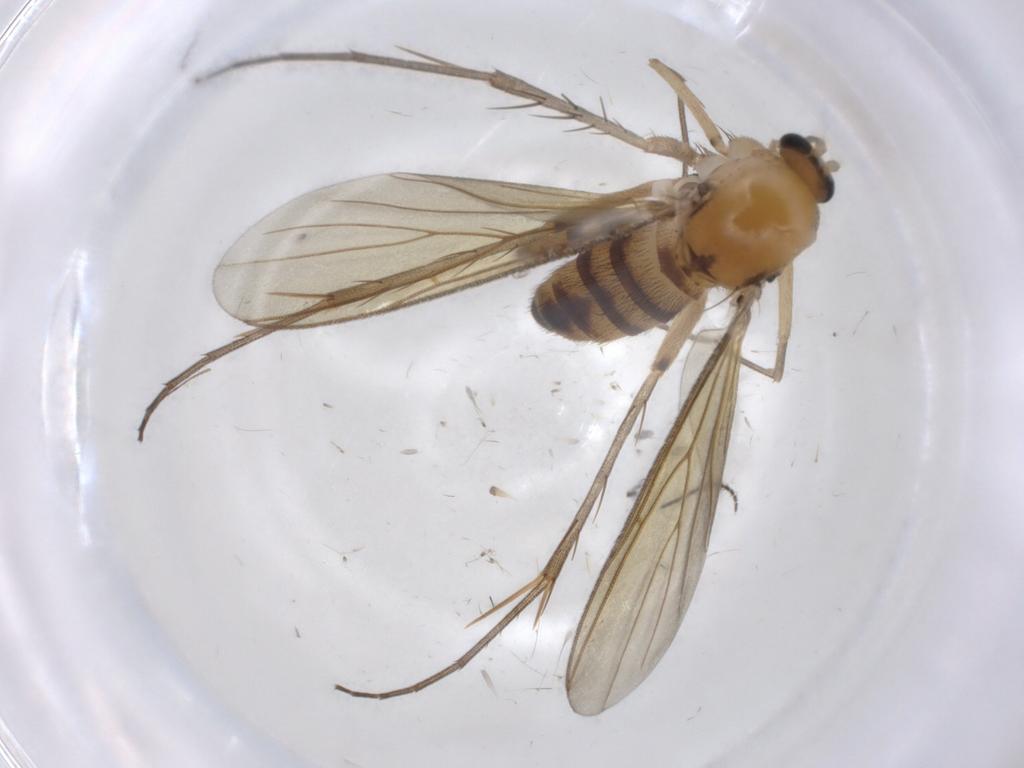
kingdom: Animalia
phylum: Arthropoda
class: Insecta
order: Diptera
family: Mycetophilidae
